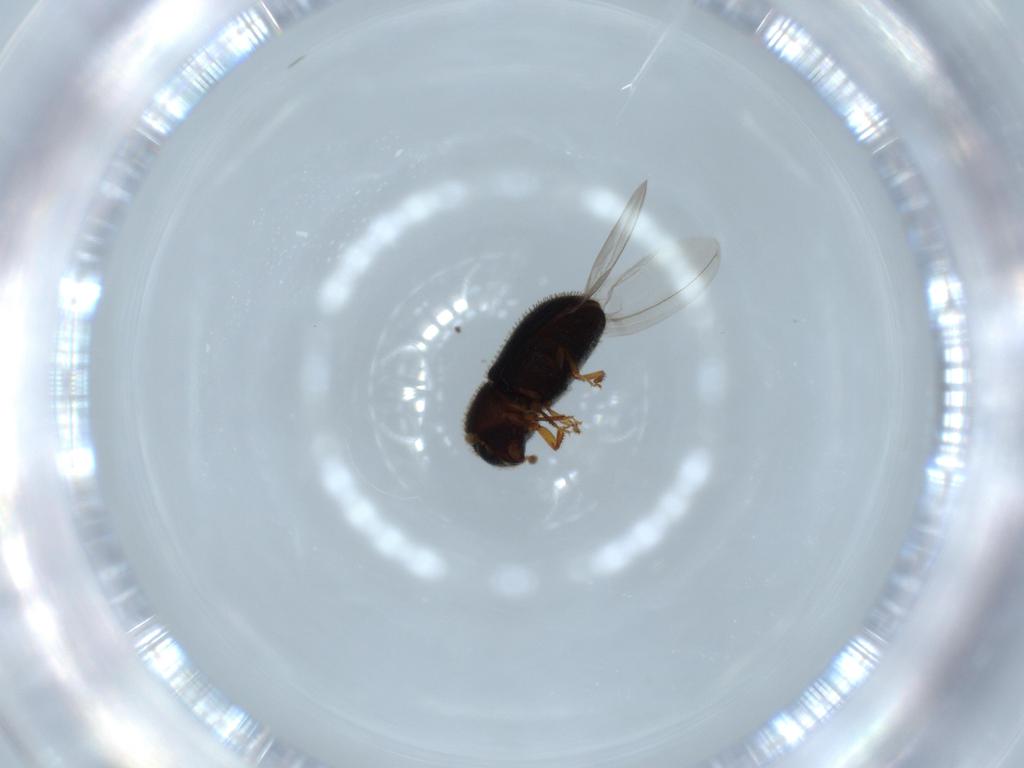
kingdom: Animalia
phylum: Arthropoda
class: Insecta
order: Coleoptera
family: Curculionidae
